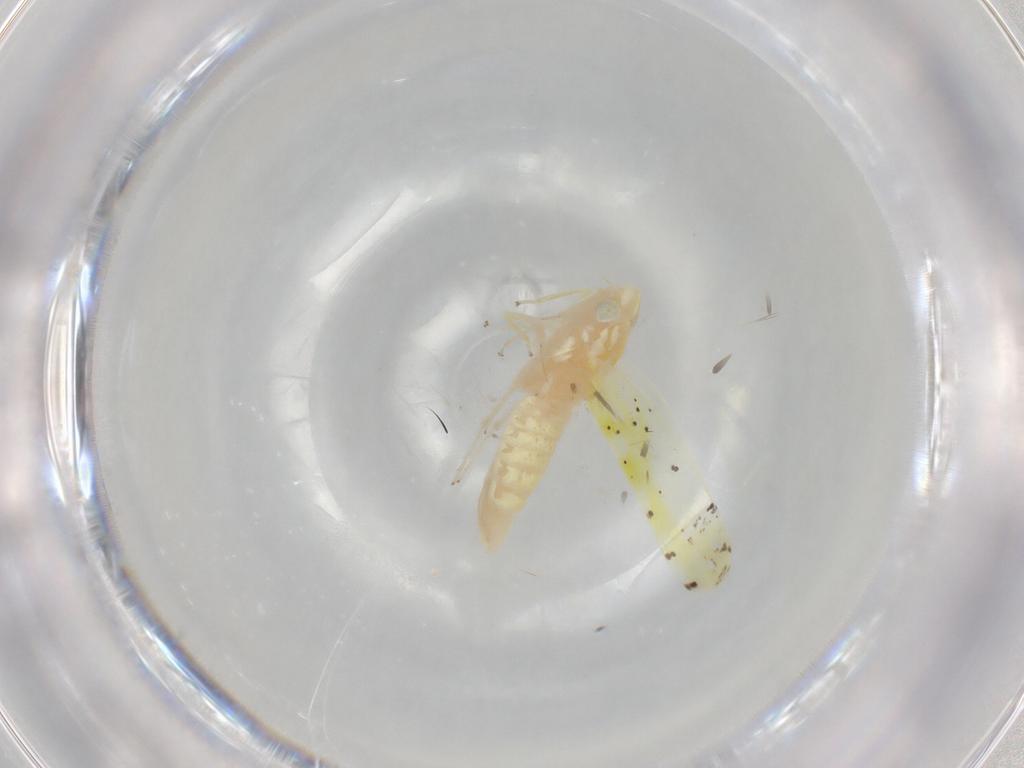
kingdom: Animalia
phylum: Arthropoda
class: Insecta
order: Hemiptera
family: Cicadellidae
